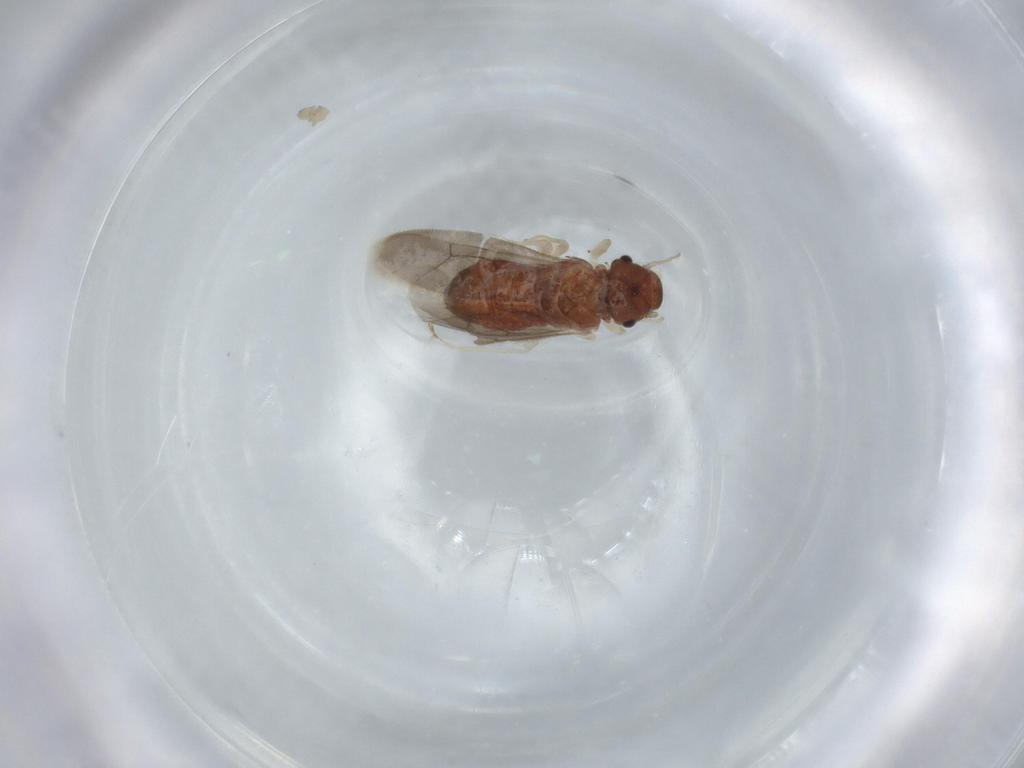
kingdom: Animalia
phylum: Arthropoda
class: Insecta
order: Psocodea
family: Archipsocidae
